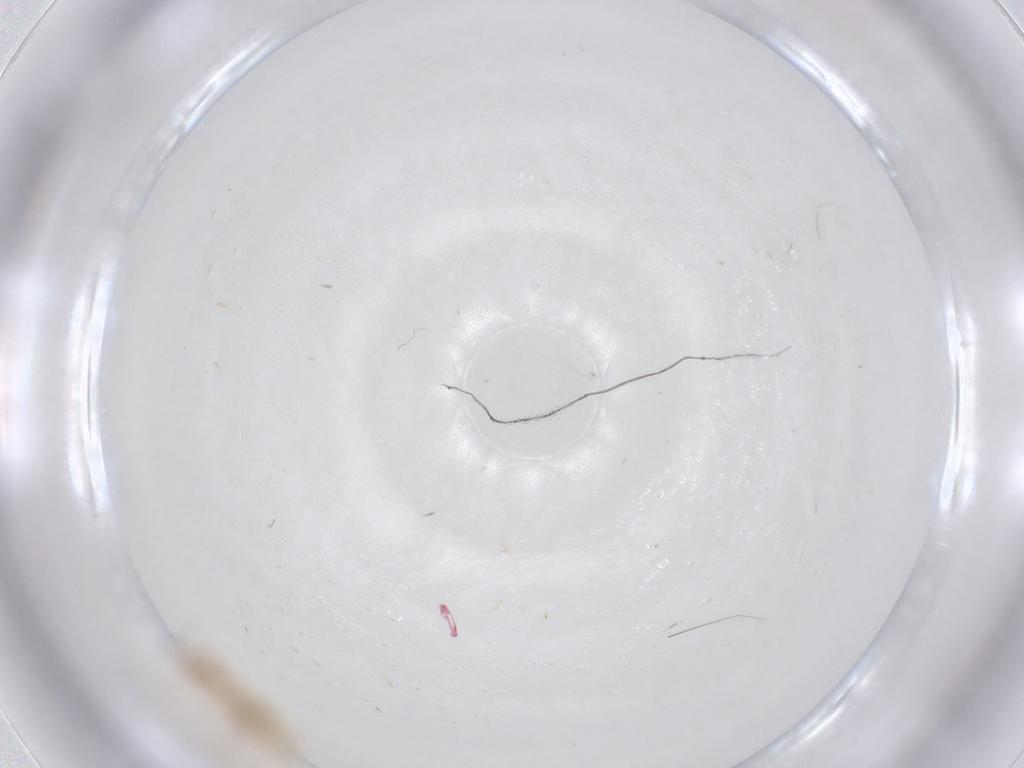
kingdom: Animalia
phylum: Arthropoda
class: Insecta
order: Diptera
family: Cecidomyiidae
